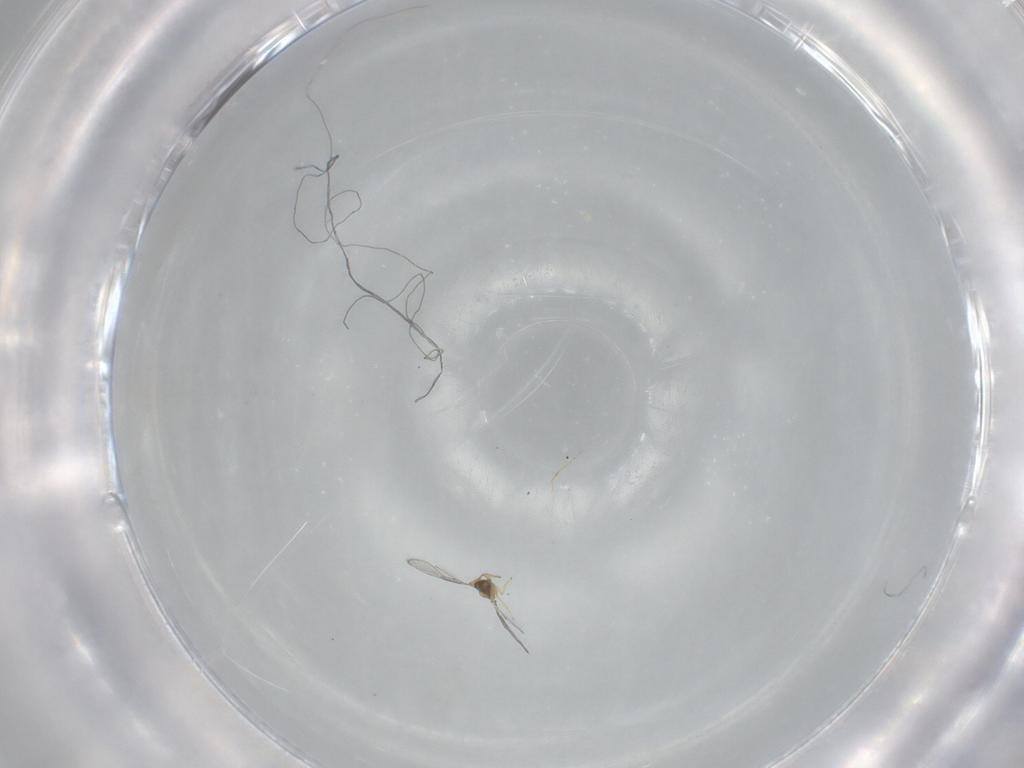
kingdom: Animalia
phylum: Arthropoda
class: Insecta
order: Hymenoptera
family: Trichogrammatidae
